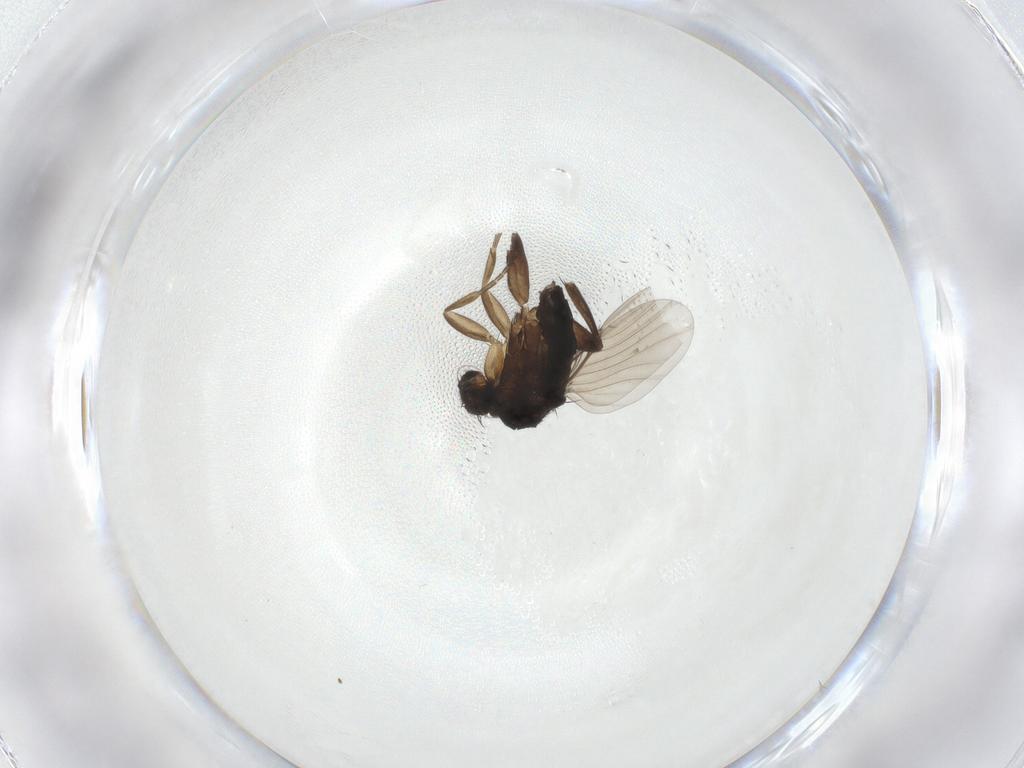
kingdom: Animalia
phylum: Arthropoda
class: Insecta
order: Diptera
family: Phoridae
